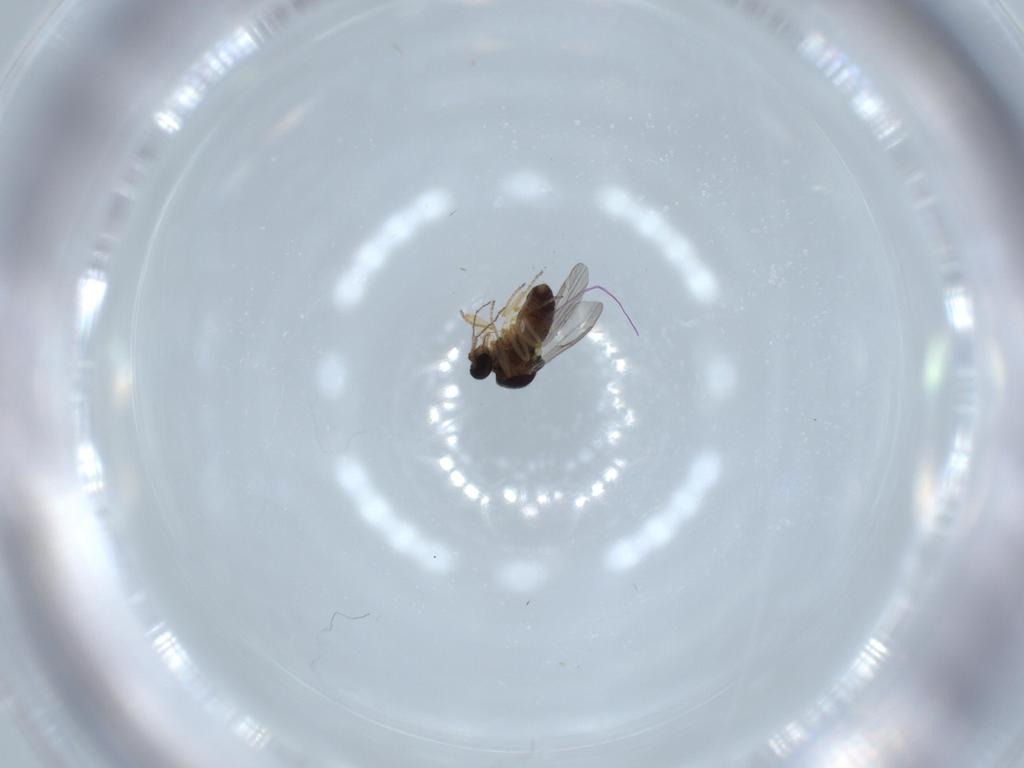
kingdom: Animalia
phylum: Arthropoda
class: Insecta
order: Diptera
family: Ceratopogonidae
